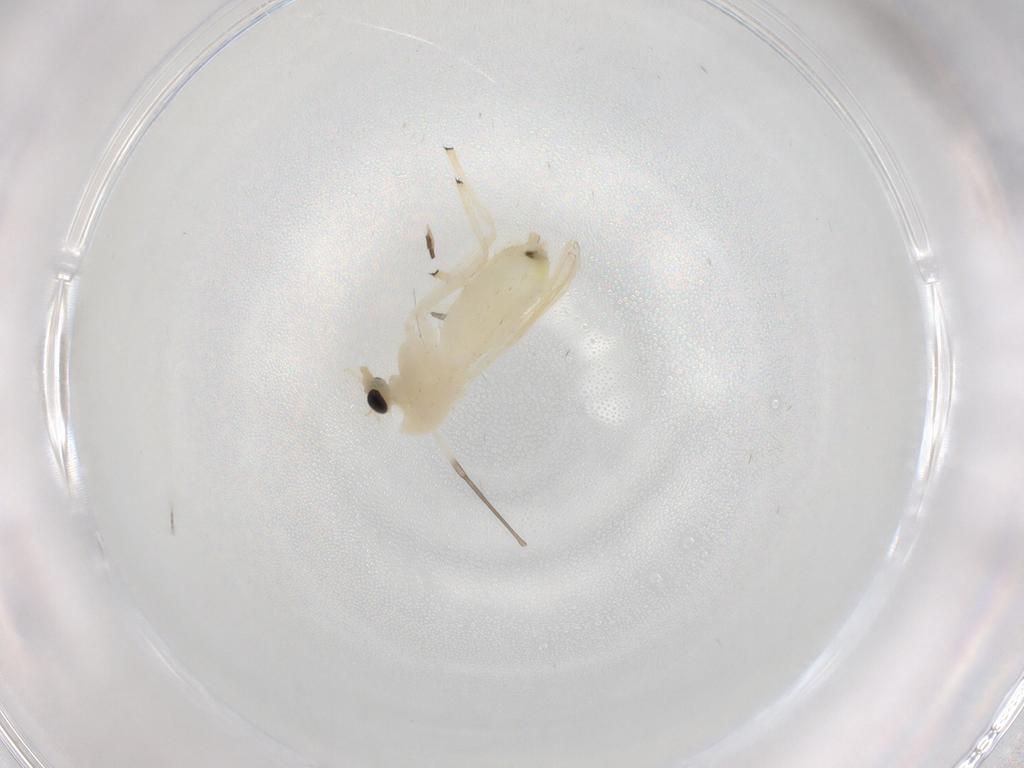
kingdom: Animalia
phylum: Arthropoda
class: Insecta
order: Diptera
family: Chironomidae
